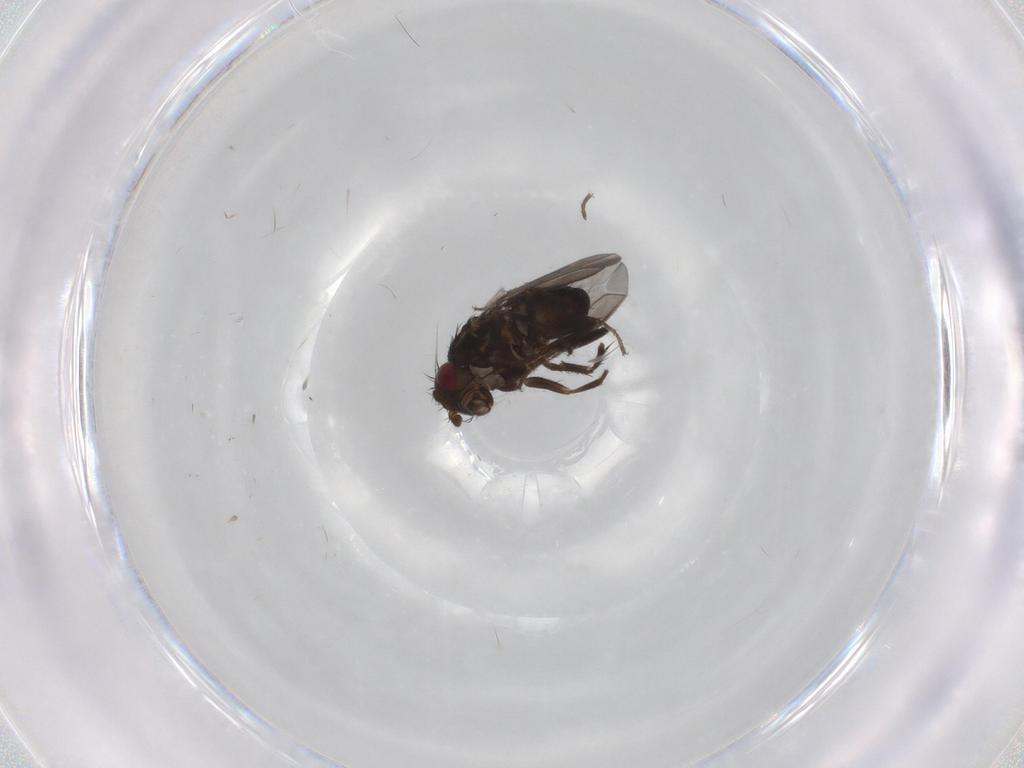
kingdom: Animalia
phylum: Arthropoda
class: Insecta
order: Diptera
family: Sphaeroceridae
